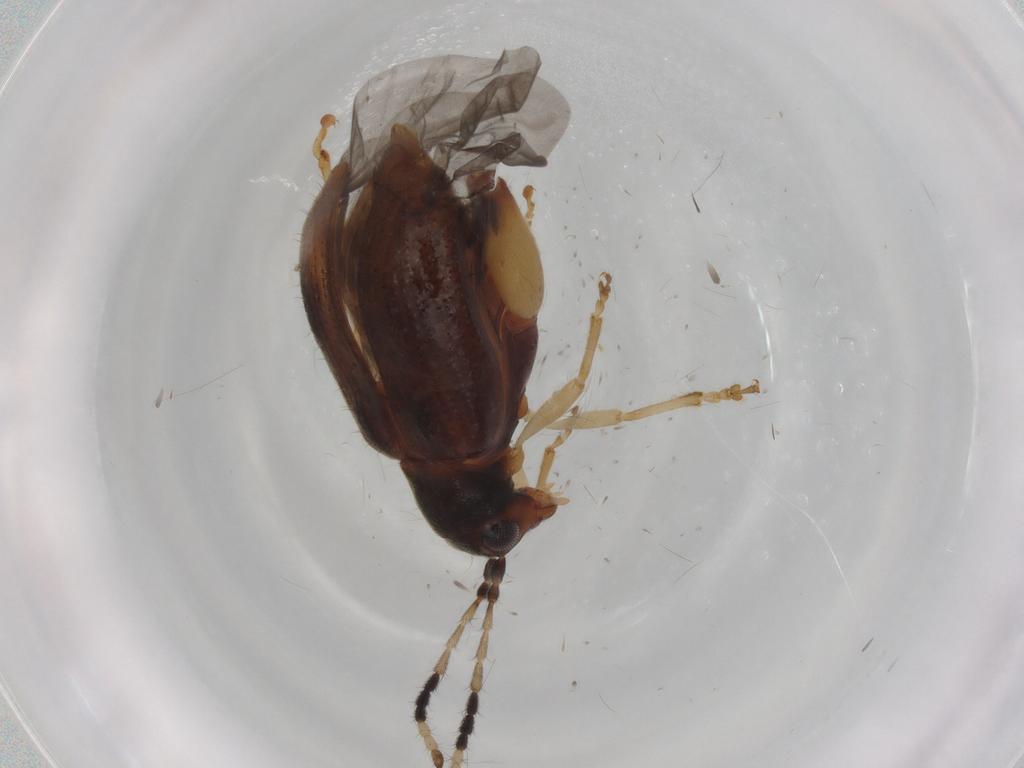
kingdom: Animalia
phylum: Arthropoda
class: Insecta
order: Coleoptera
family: Chrysomelidae
